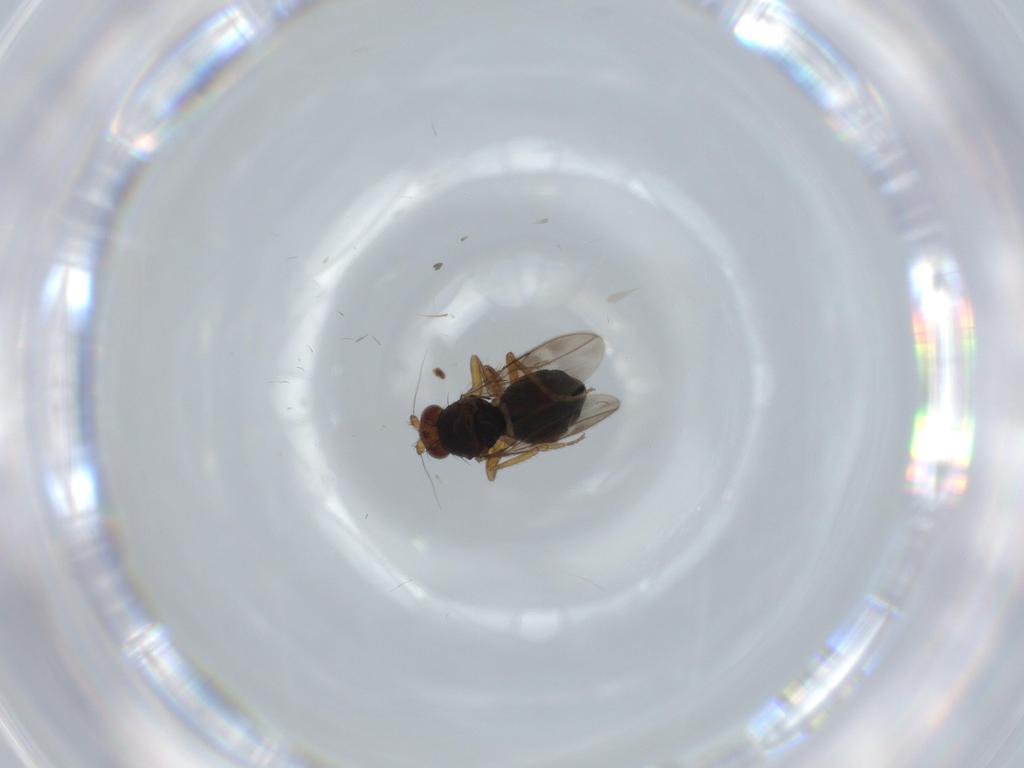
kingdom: Animalia
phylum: Arthropoda
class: Insecta
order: Diptera
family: Sphaeroceridae
